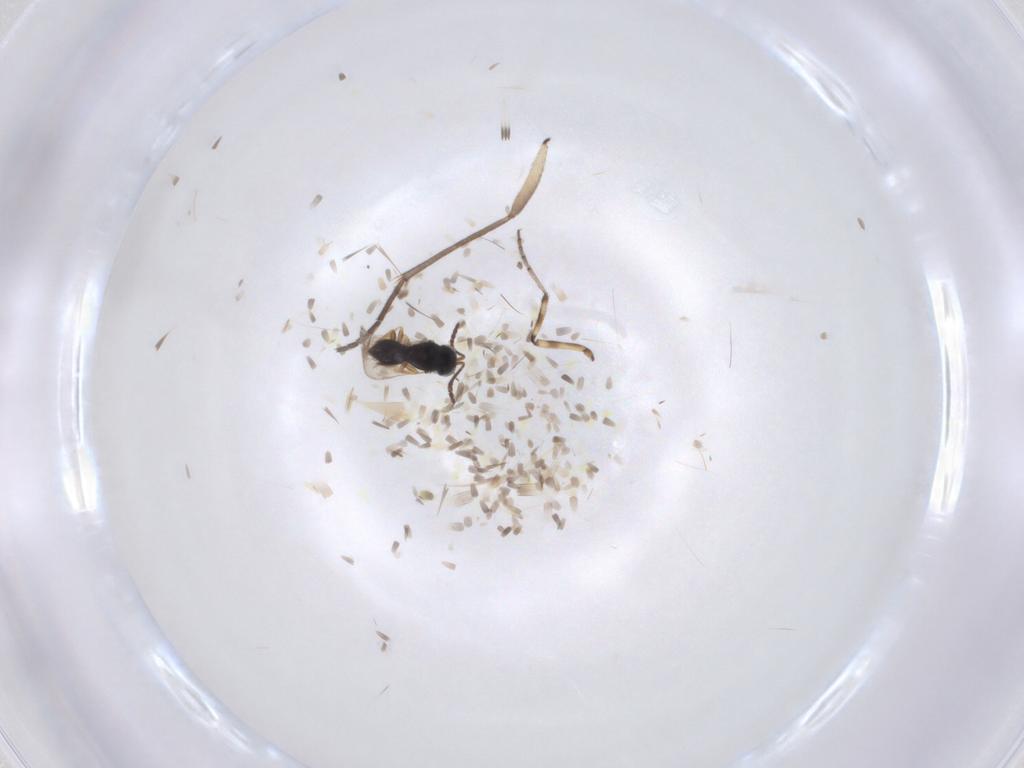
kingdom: Animalia
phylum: Arthropoda
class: Insecta
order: Hymenoptera
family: Scelionidae
